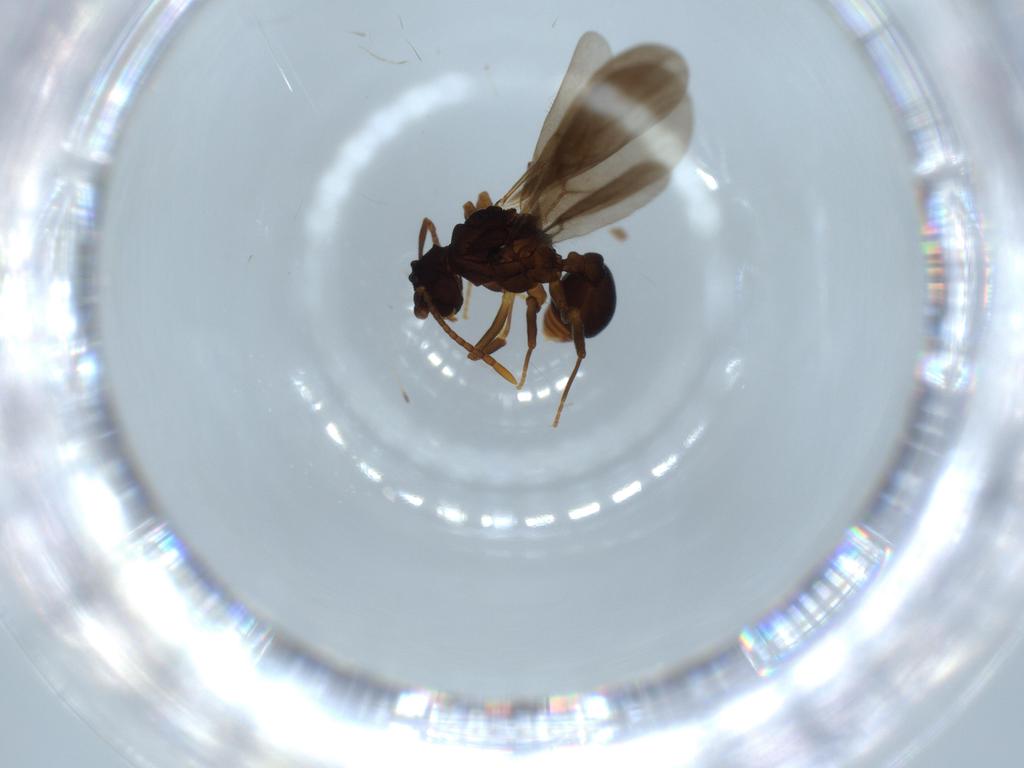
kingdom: Animalia
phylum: Arthropoda
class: Insecta
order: Hymenoptera
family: Formicidae
